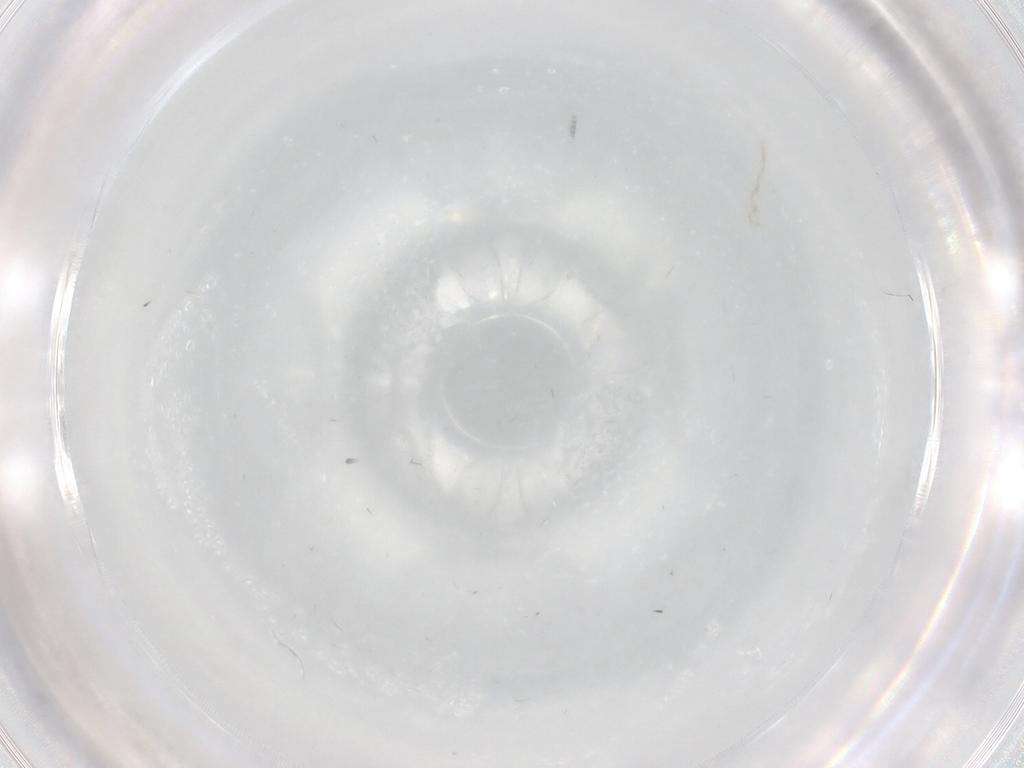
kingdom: Animalia
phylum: Arthropoda
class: Insecta
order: Diptera
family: Cecidomyiidae
